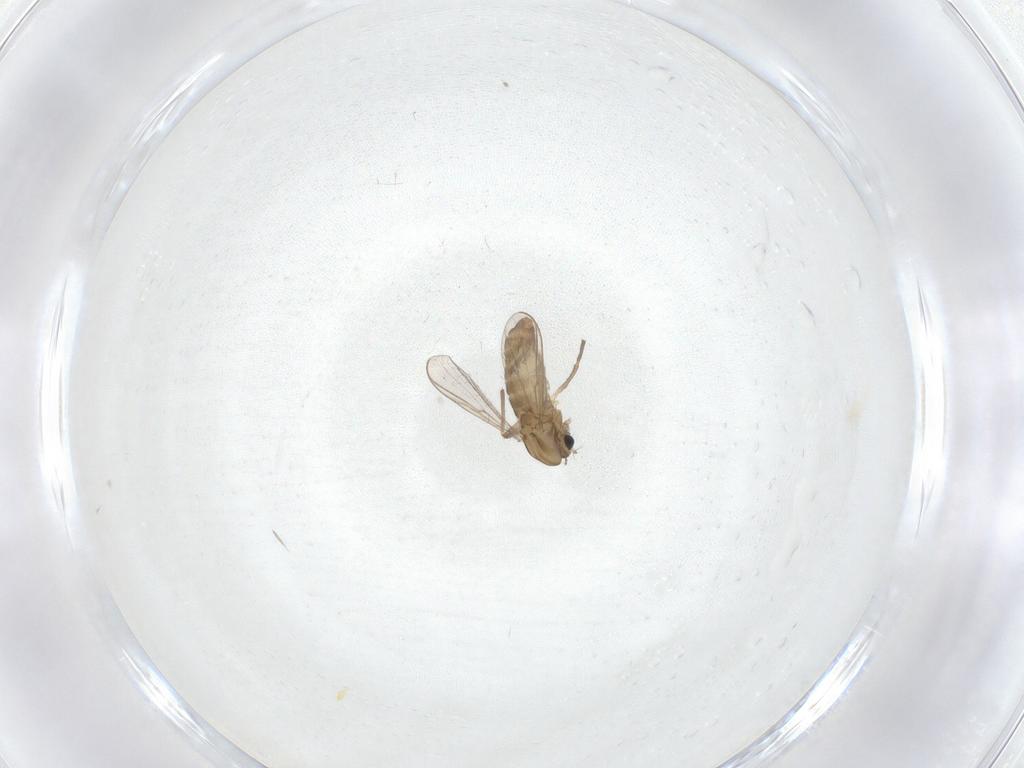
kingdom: Animalia
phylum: Arthropoda
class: Insecta
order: Diptera
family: Chironomidae
